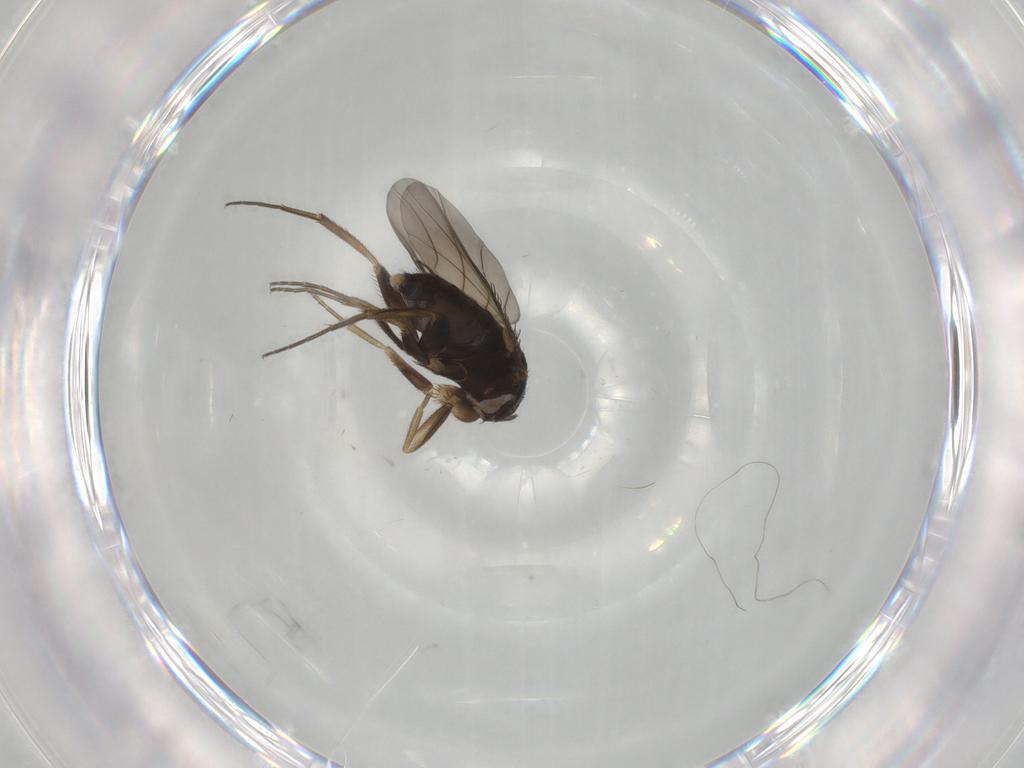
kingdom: Animalia
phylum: Arthropoda
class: Insecta
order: Diptera
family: Phoridae
